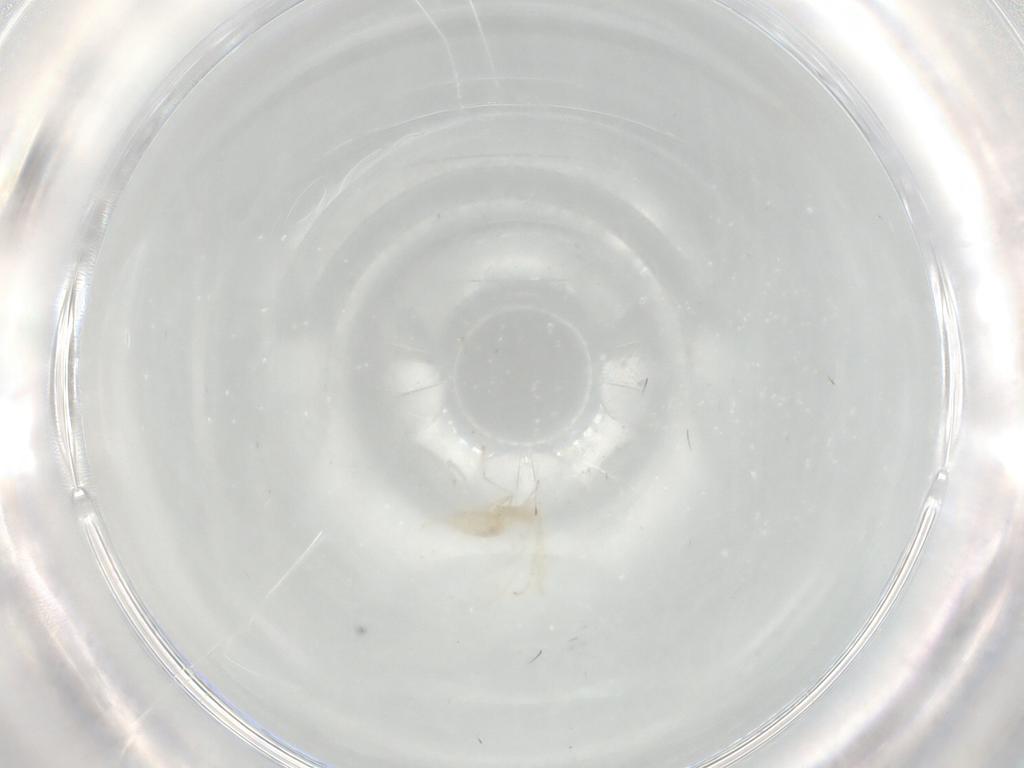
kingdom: Animalia
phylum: Arthropoda
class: Insecta
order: Diptera
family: Cecidomyiidae
